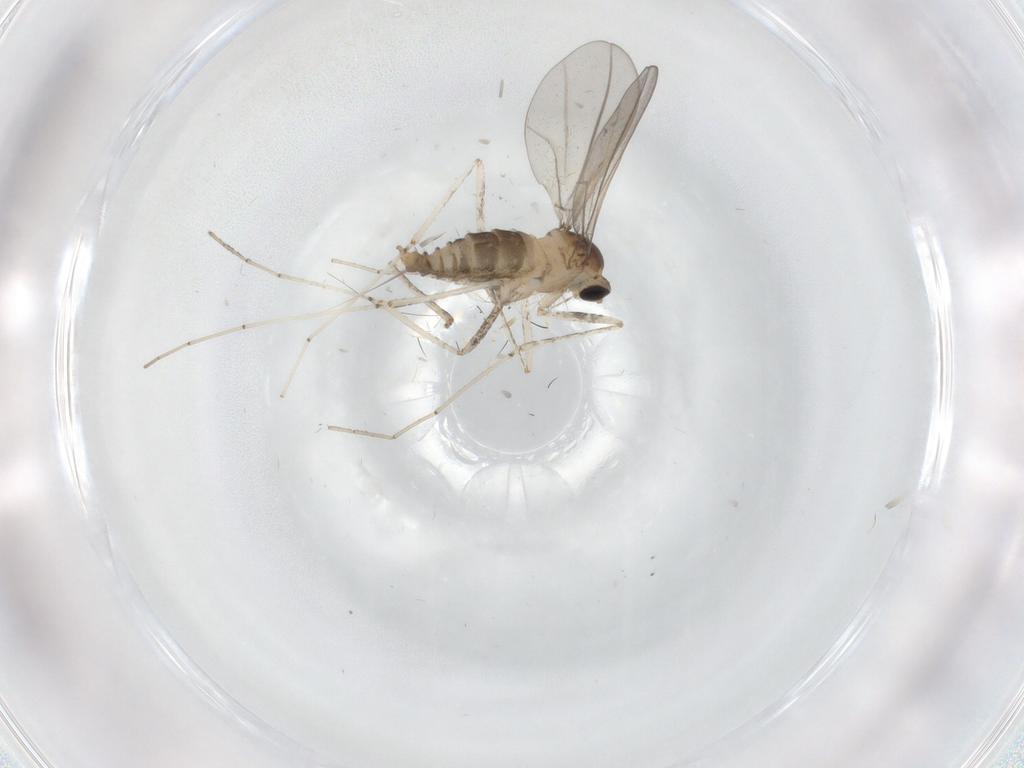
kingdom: Animalia
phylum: Arthropoda
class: Insecta
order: Diptera
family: Cecidomyiidae
